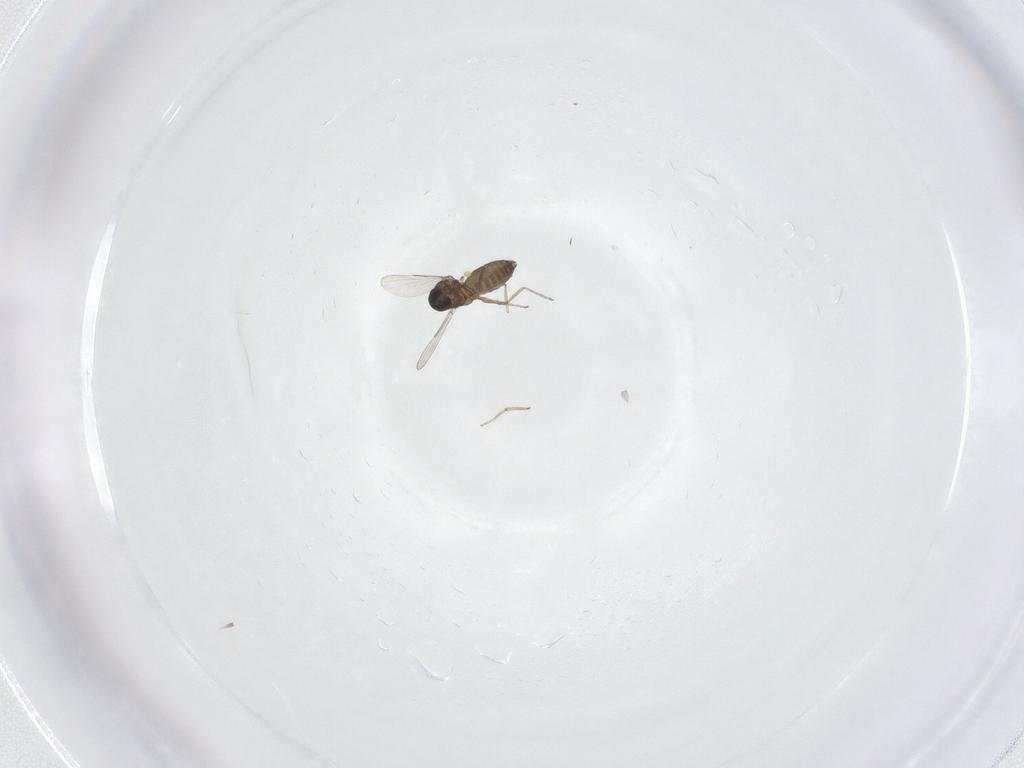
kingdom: Animalia
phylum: Arthropoda
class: Insecta
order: Diptera
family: Ceratopogonidae
